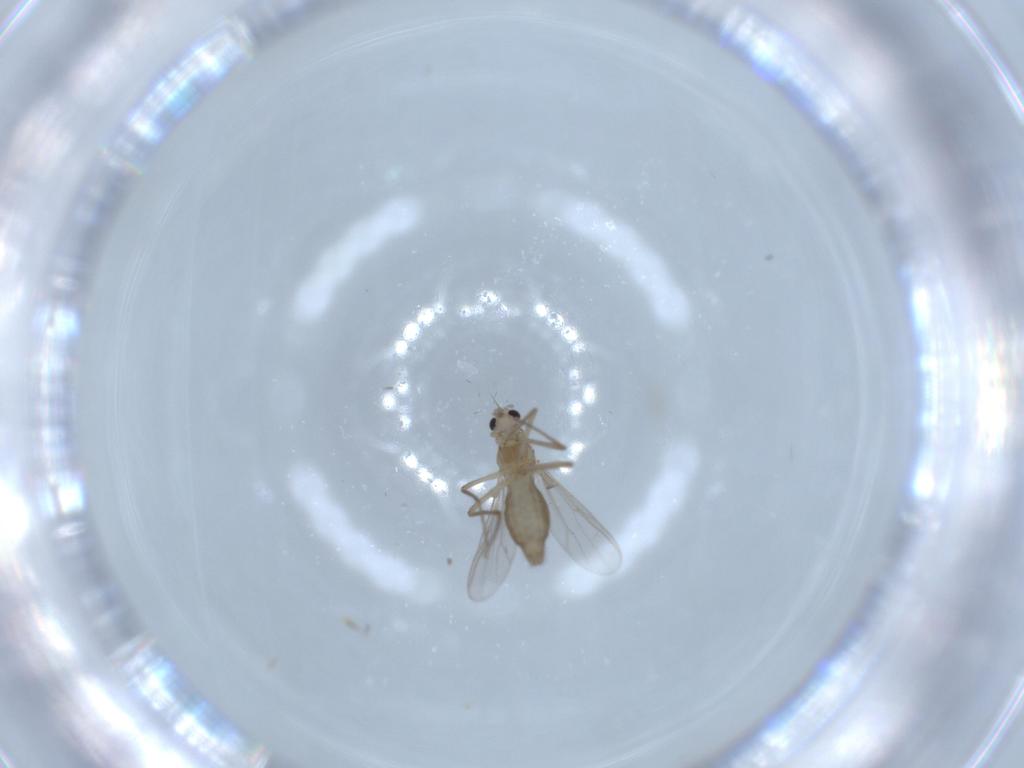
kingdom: Animalia
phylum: Arthropoda
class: Insecta
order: Diptera
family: Chironomidae
